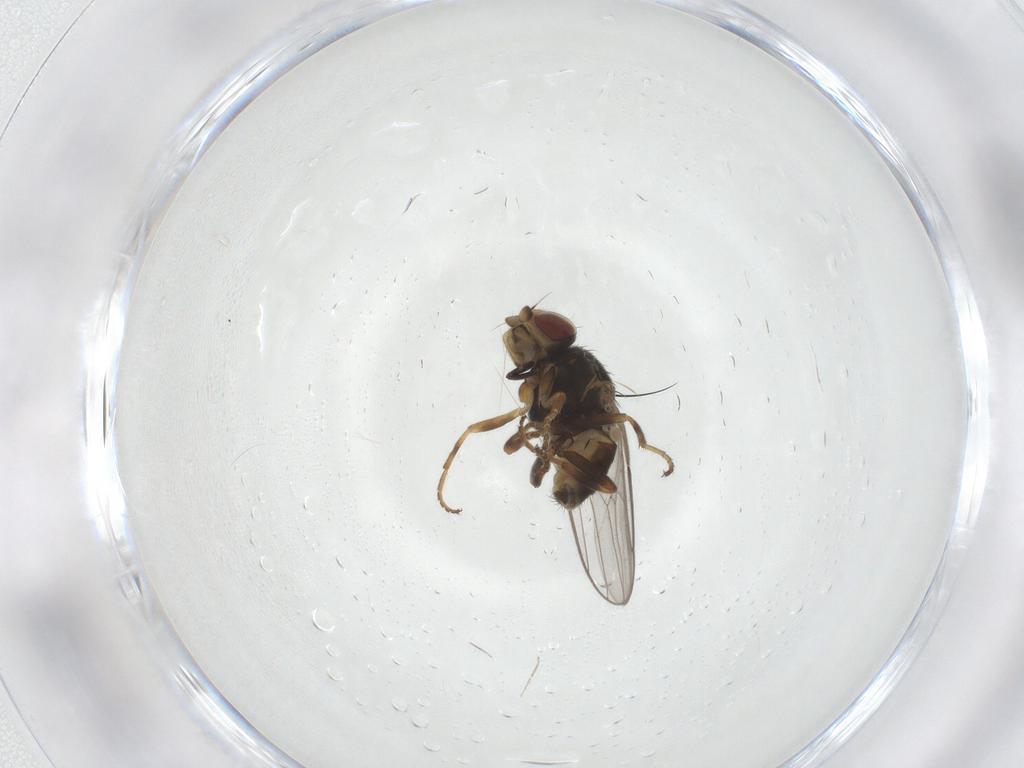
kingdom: Animalia
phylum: Arthropoda
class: Insecta
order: Diptera
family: Chloropidae
